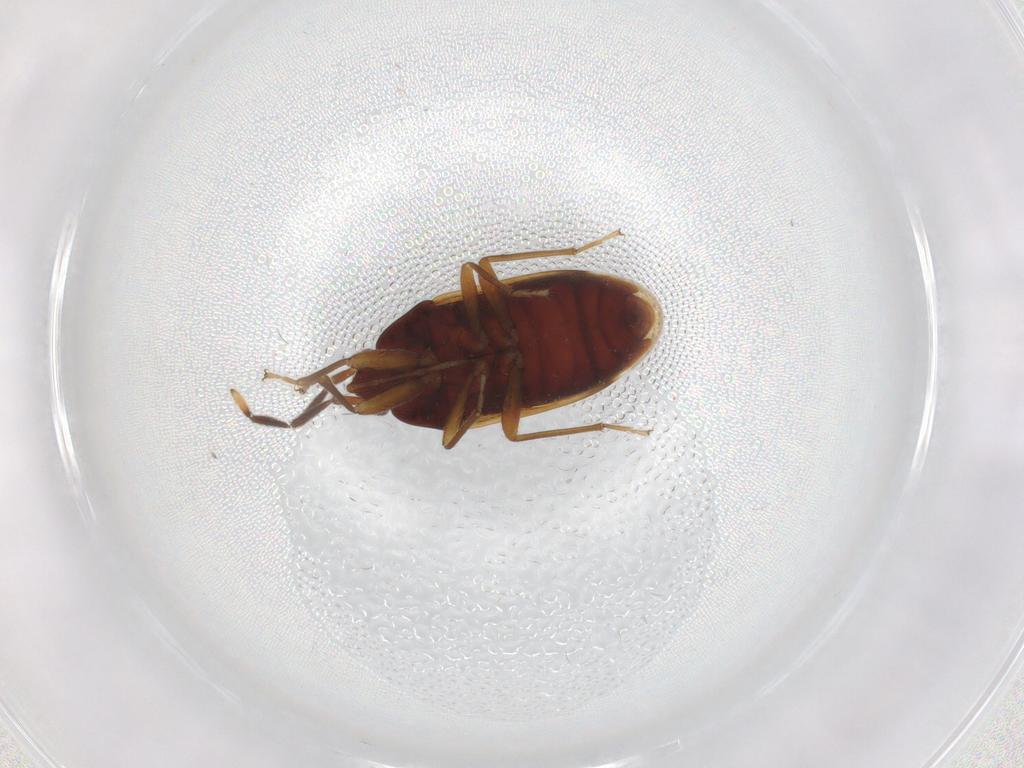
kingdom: Animalia
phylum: Arthropoda
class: Insecta
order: Hemiptera
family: Rhyparochromidae
